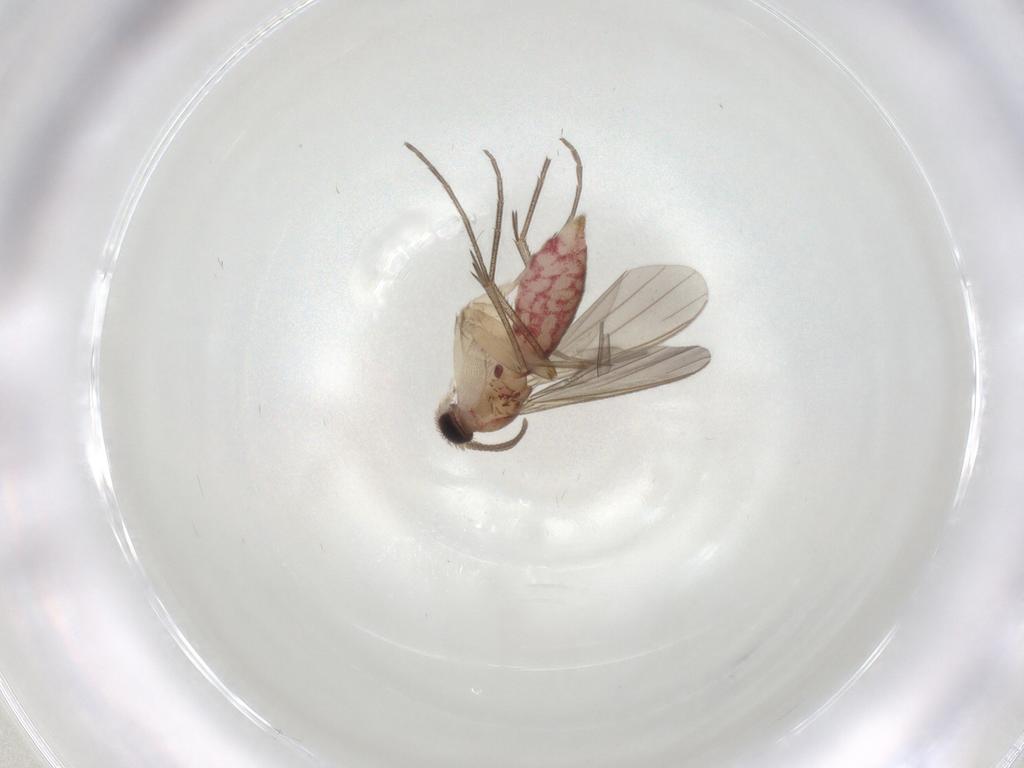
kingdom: Animalia
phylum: Arthropoda
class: Insecta
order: Diptera
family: Mycetophilidae
